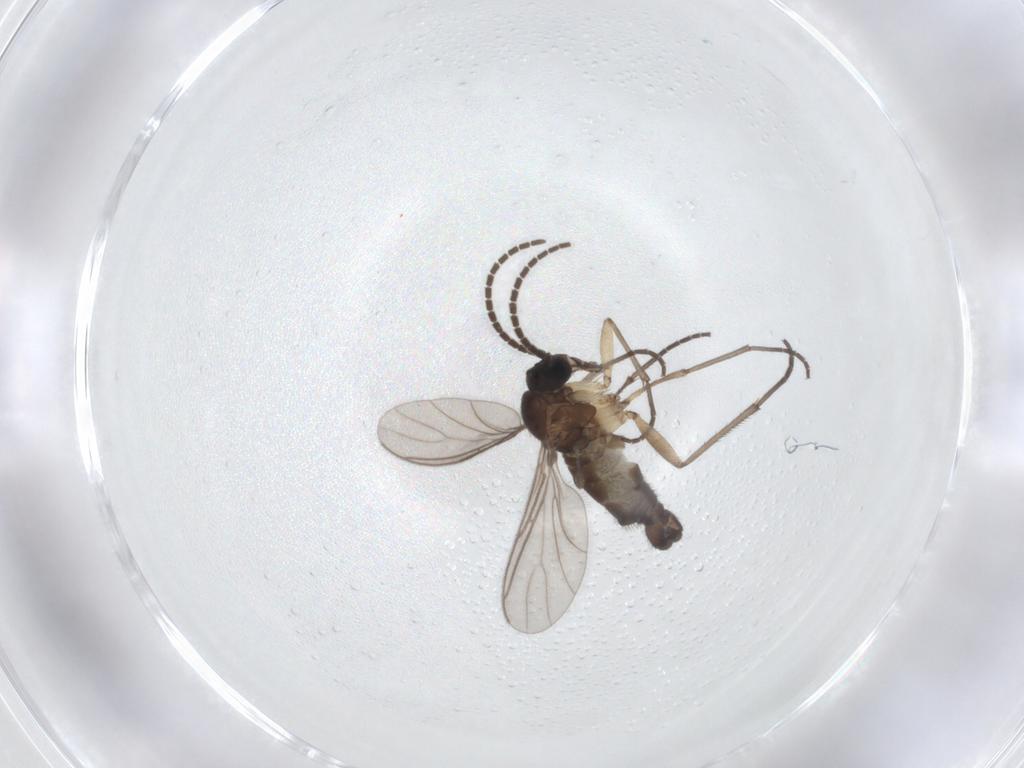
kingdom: Animalia
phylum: Arthropoda
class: Insecta
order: Diptera
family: Sciaridae
